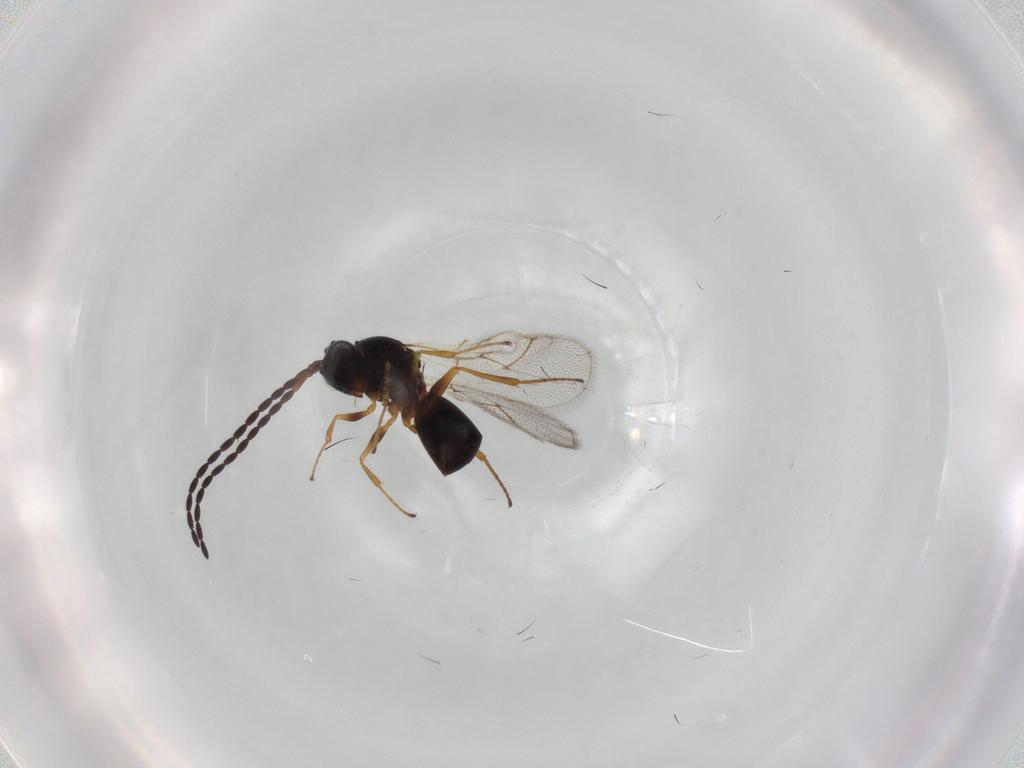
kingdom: Animalia
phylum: Arthropoda
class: Insecta
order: Hymenoptera
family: Figitidae
